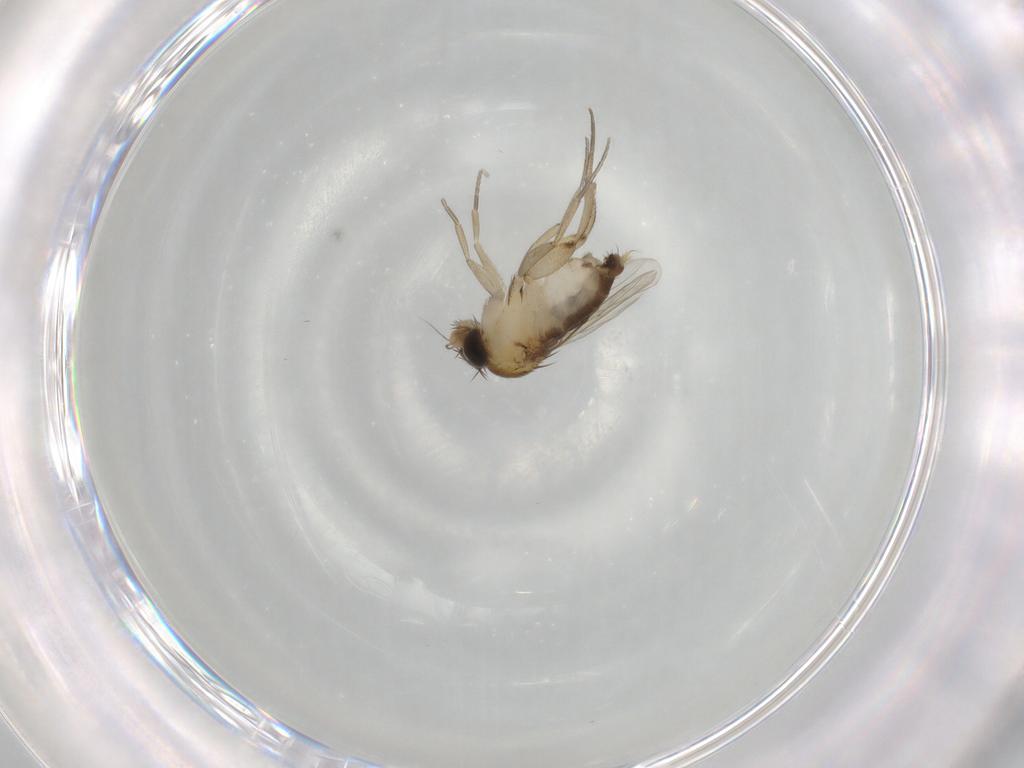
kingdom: Animalia
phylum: Arthropoda
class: Insecta
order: Diptera
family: Phoridae
